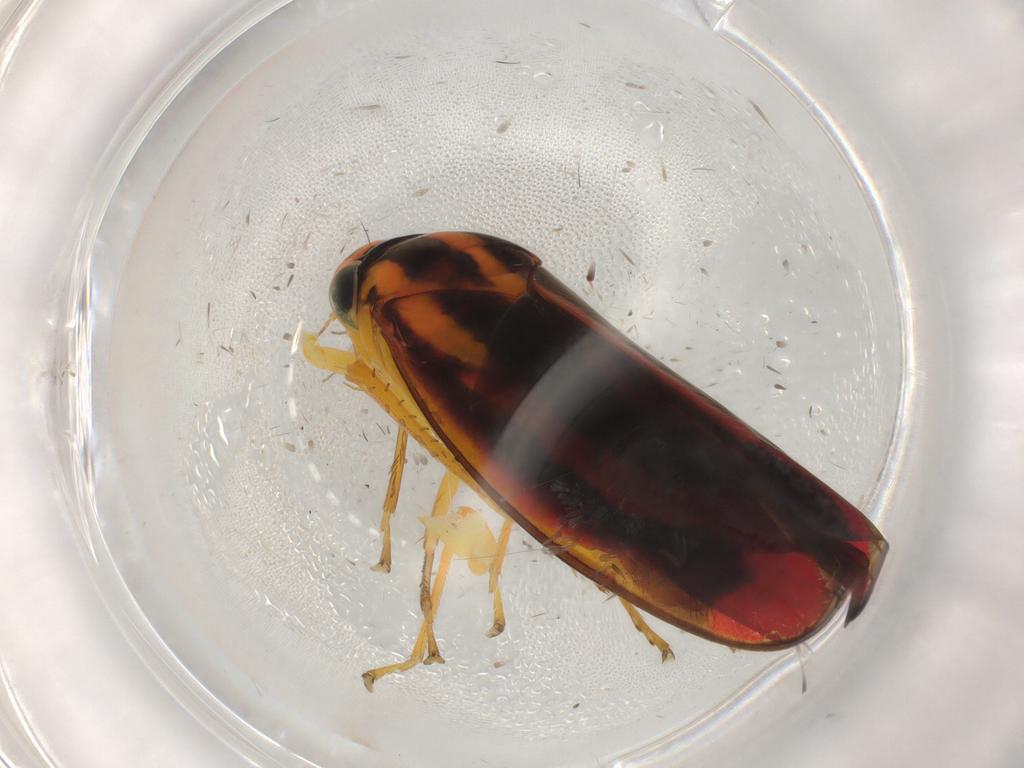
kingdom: Animalia
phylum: Arthropoda
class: Insecta
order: Hemiptera
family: Cicadellidae
